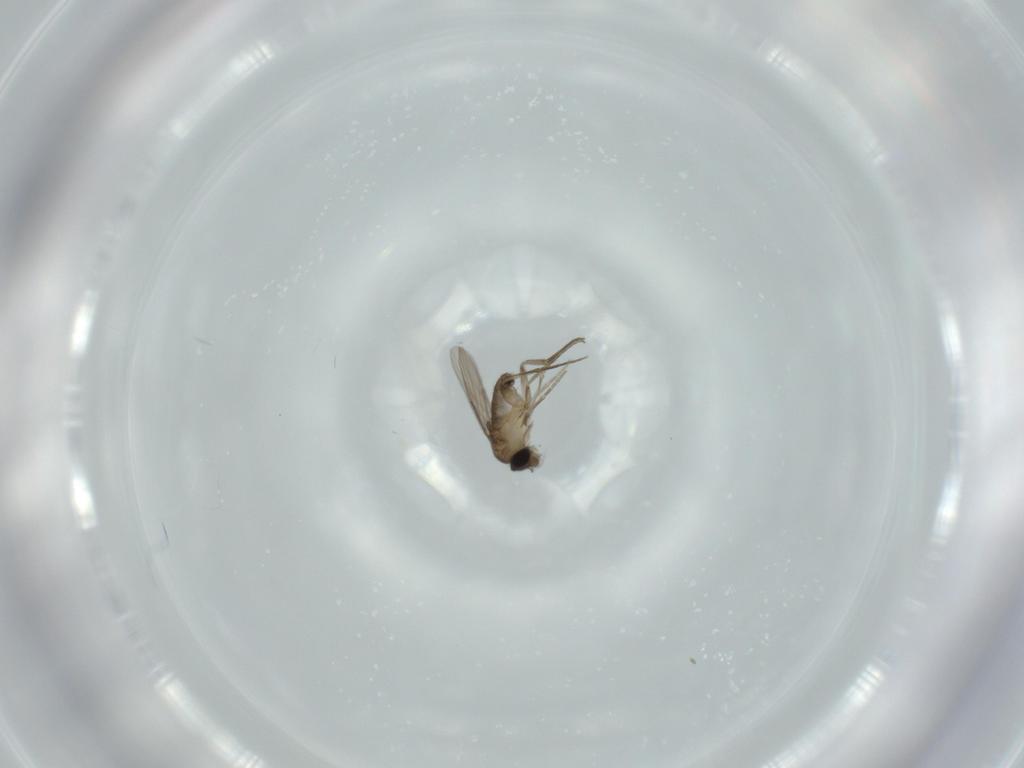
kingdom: Animalia
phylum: Arthropoda
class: Insecta
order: Diptera
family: Phoridae
